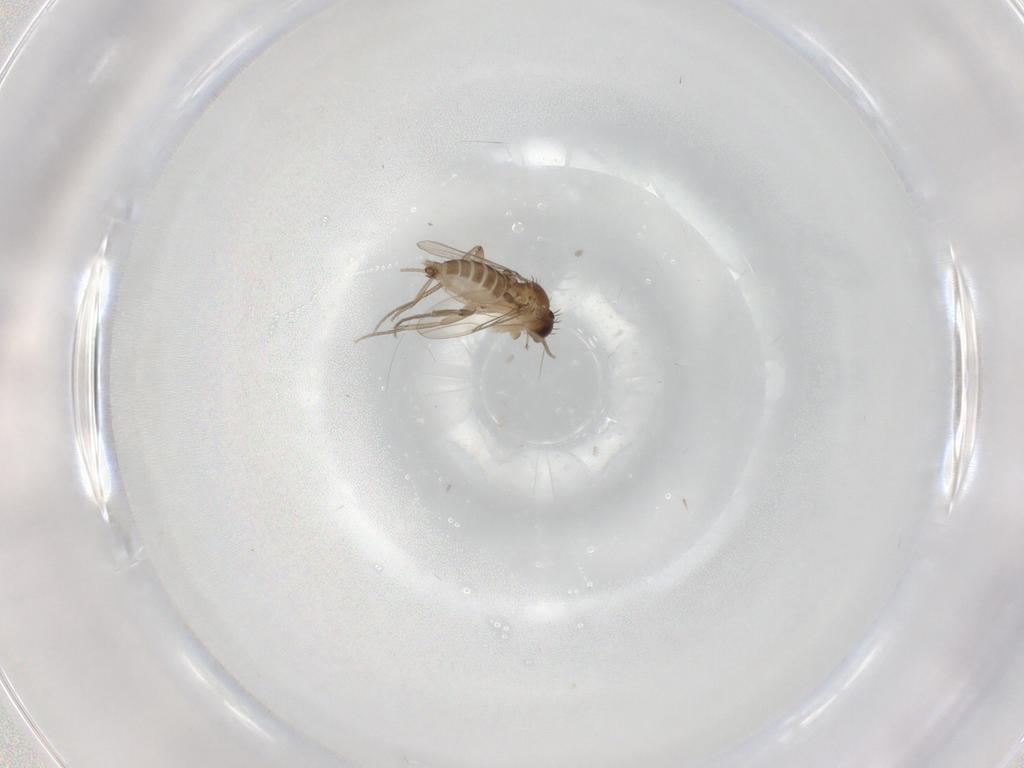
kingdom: Animalia
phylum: Arthropoda
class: Insecta
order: Diptera
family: Phoridae
